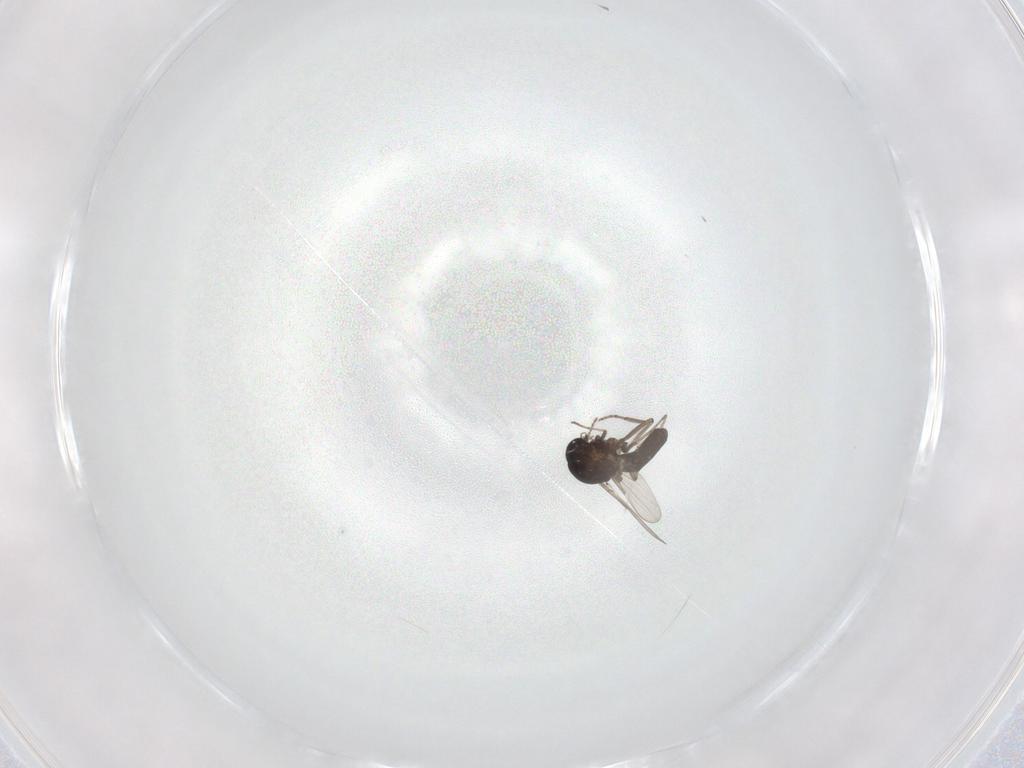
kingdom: Animalia
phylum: Arthropoda
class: Insecta
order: Diptera
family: Ceratopogonidae
